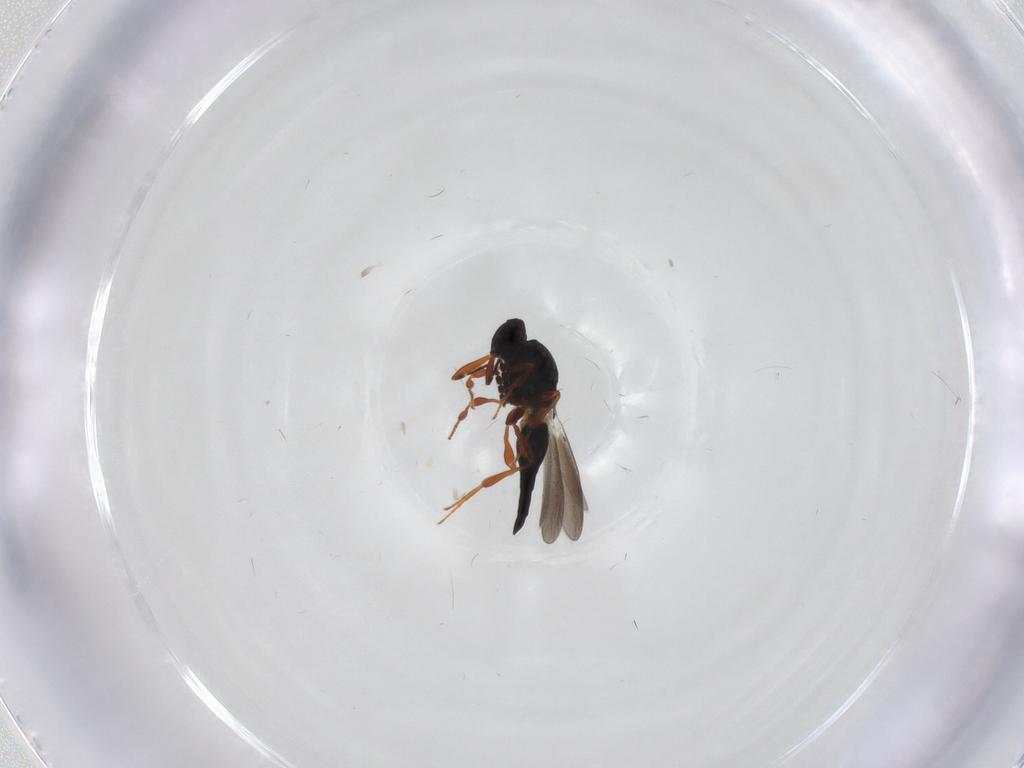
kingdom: Animalia
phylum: Arthropoda
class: Insecta
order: Hymenoptera
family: Platygastridae
